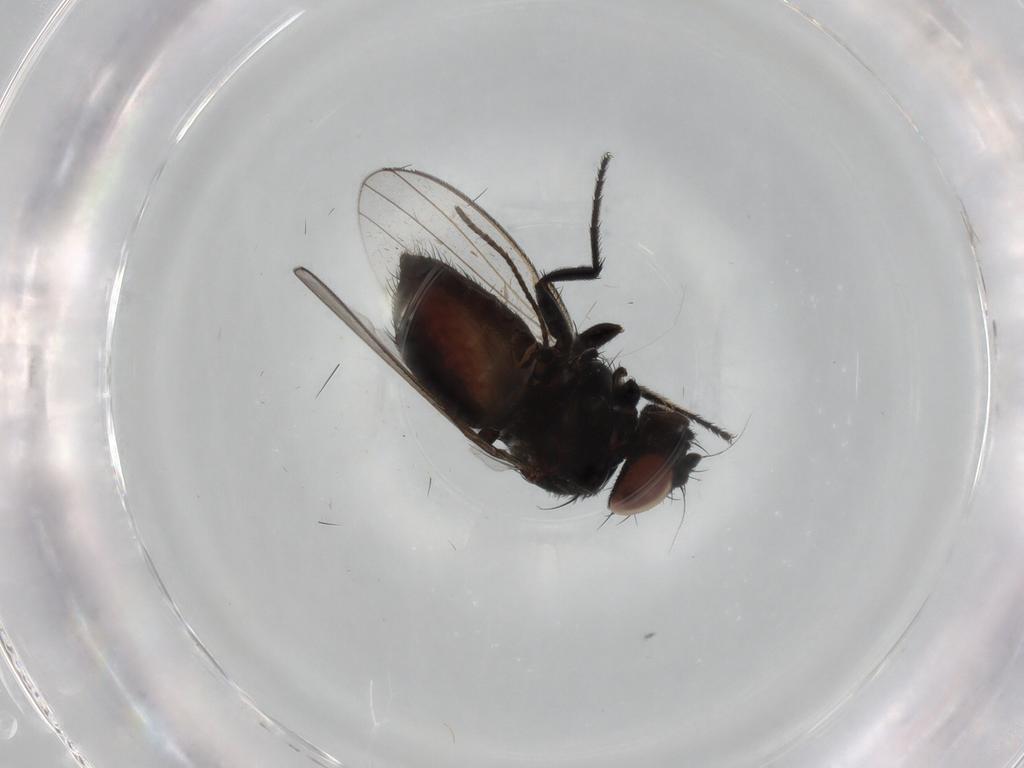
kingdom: Animalia
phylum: Arthropoda
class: Insecta
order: Diptera
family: Milichiidae
